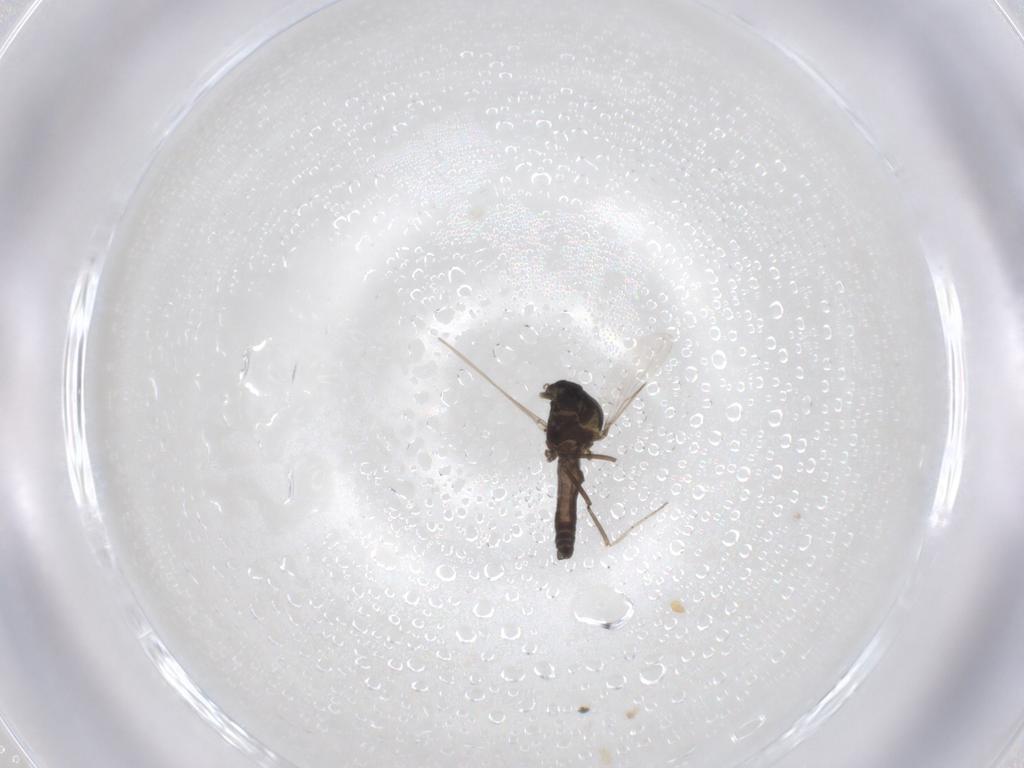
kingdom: Animalia
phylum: Arthropoda
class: Insecta
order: Diptera
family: Ceratopogonidae
